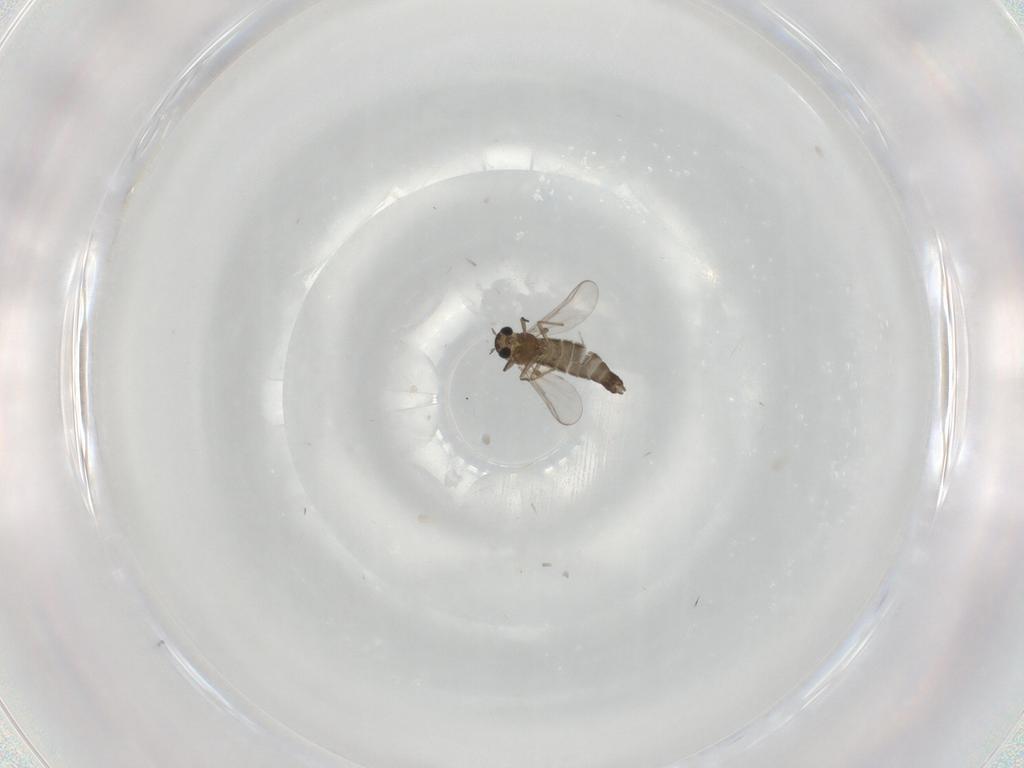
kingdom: Animalia
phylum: Arthropoda
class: Insecta
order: Diptera
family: Chironomidae
